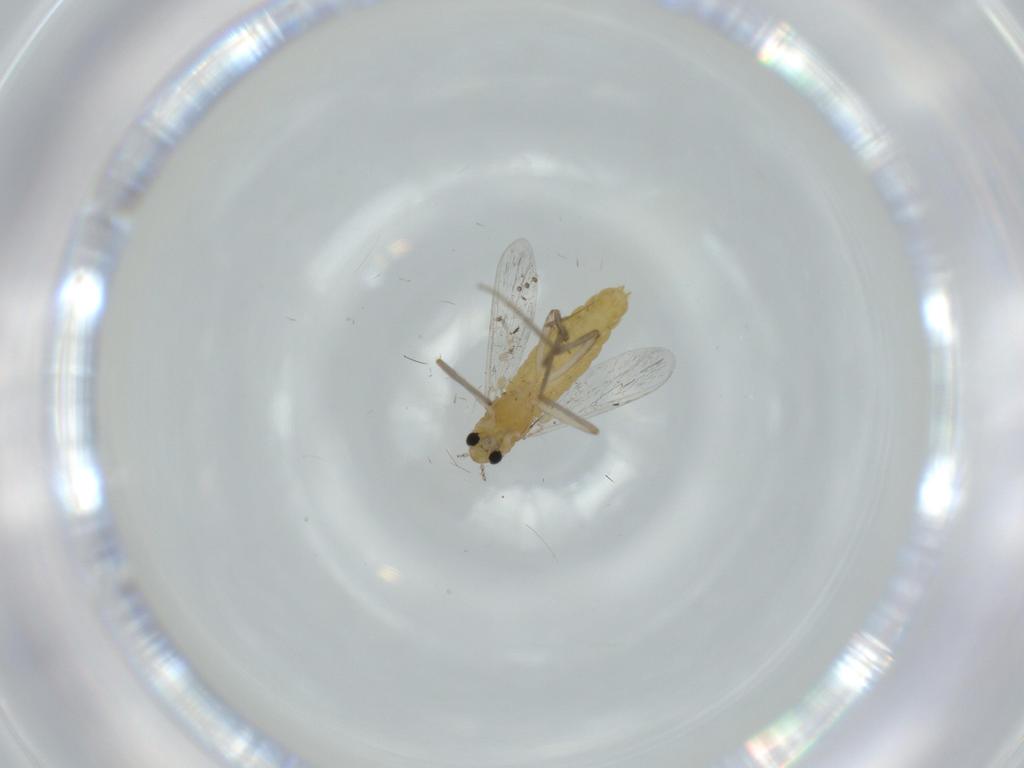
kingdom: Animalia
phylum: Arthropoda
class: Insecta
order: Diptera
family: Chironomidae
